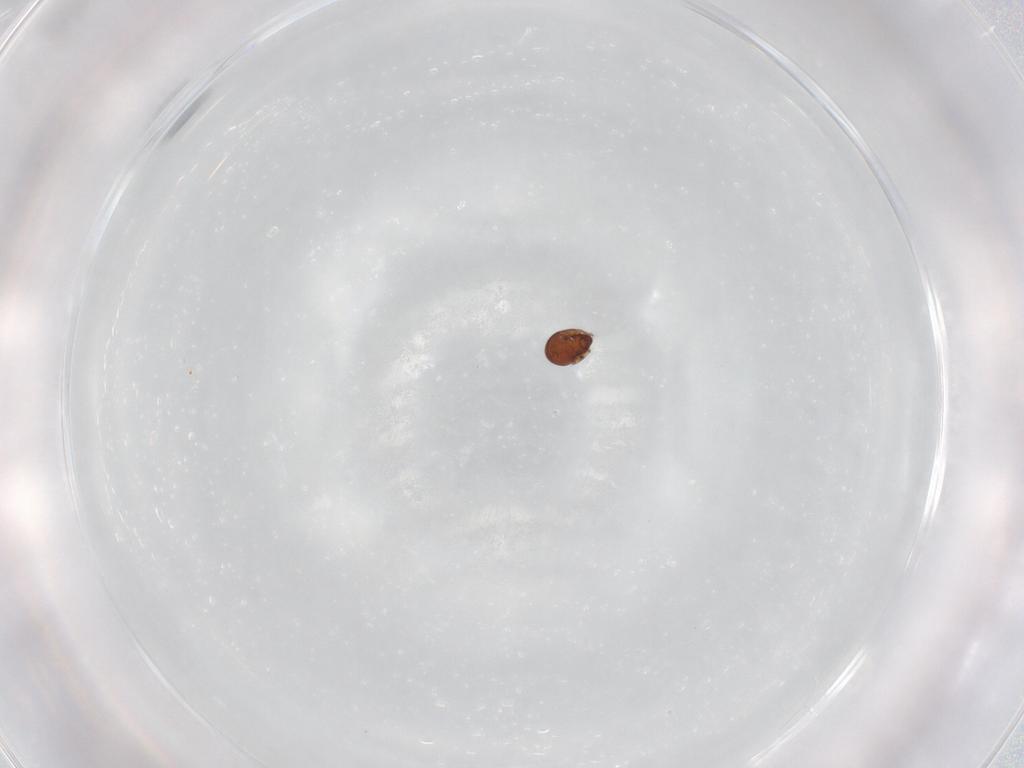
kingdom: Animalia
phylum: Arthropoda
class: Arachnida
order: Sarcoptiformes
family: Tegoribatidae
